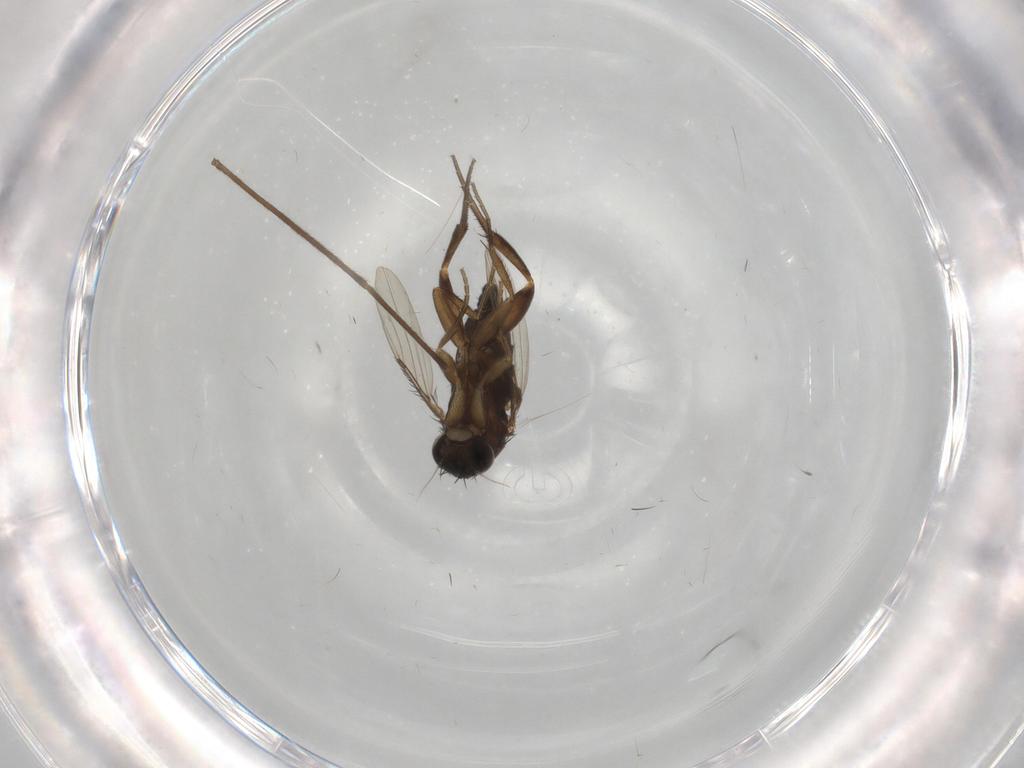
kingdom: Animalia
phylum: Arthropoda
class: Insecta
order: Diptera
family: Phoridae
